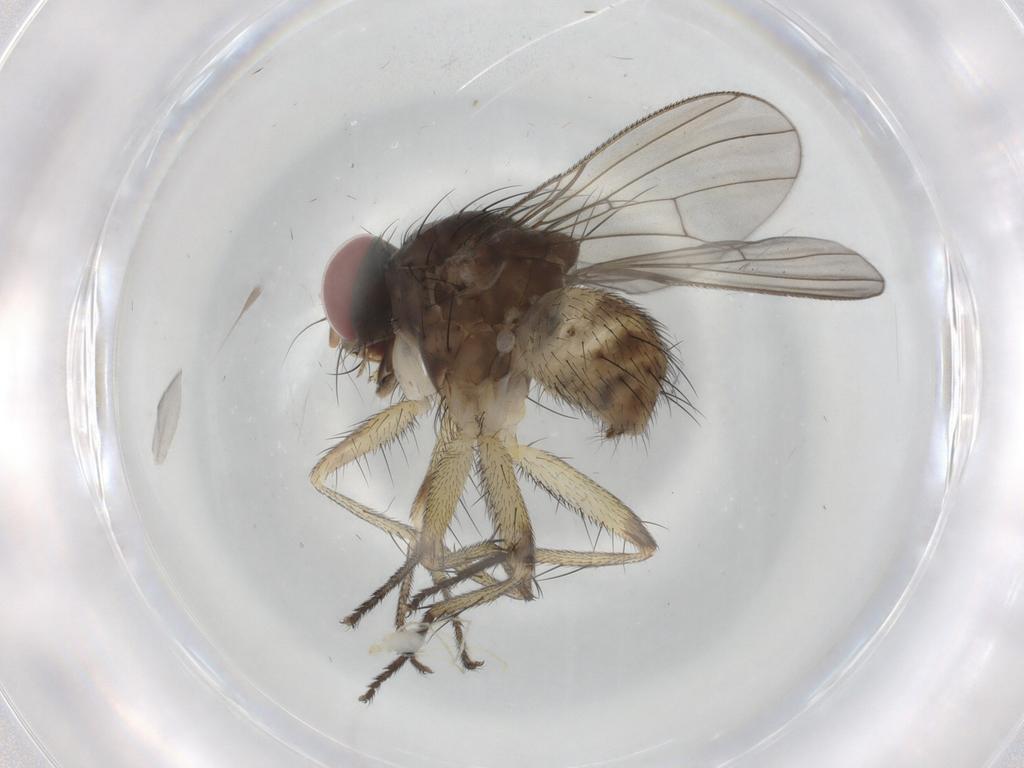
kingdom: Animalia
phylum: Arthropoda
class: Insecta
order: Diptera
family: Muscidae
